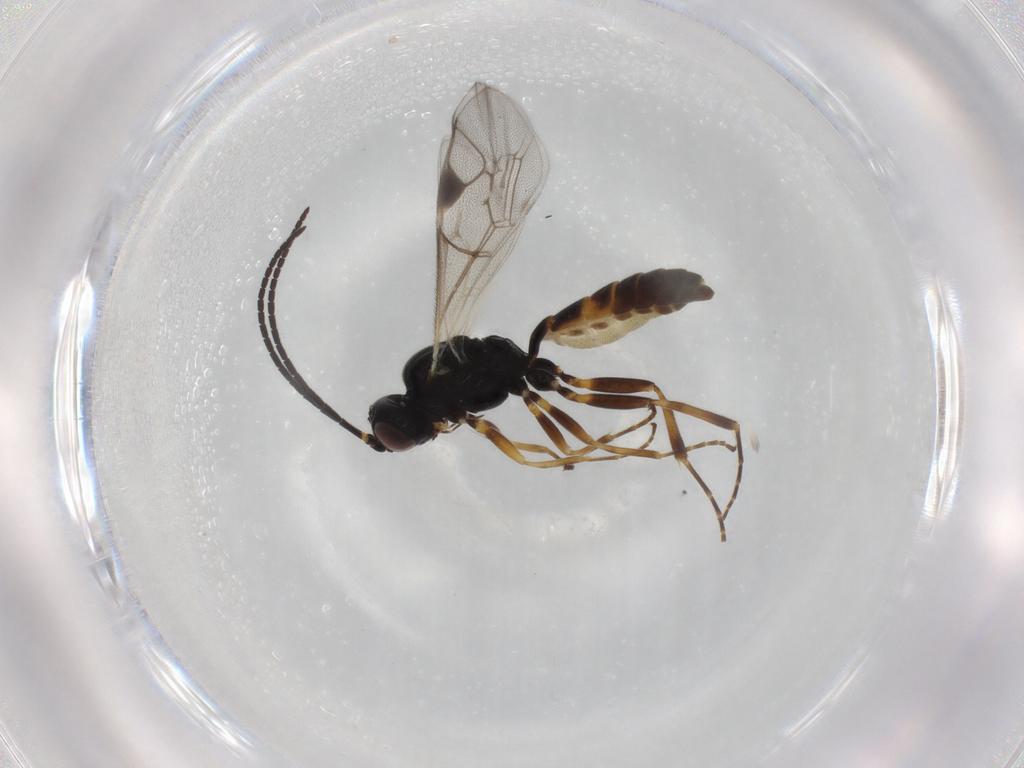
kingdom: Animalia
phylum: Arthropoda
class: Insecta
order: Hymenoptera
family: Ichneumonidae
